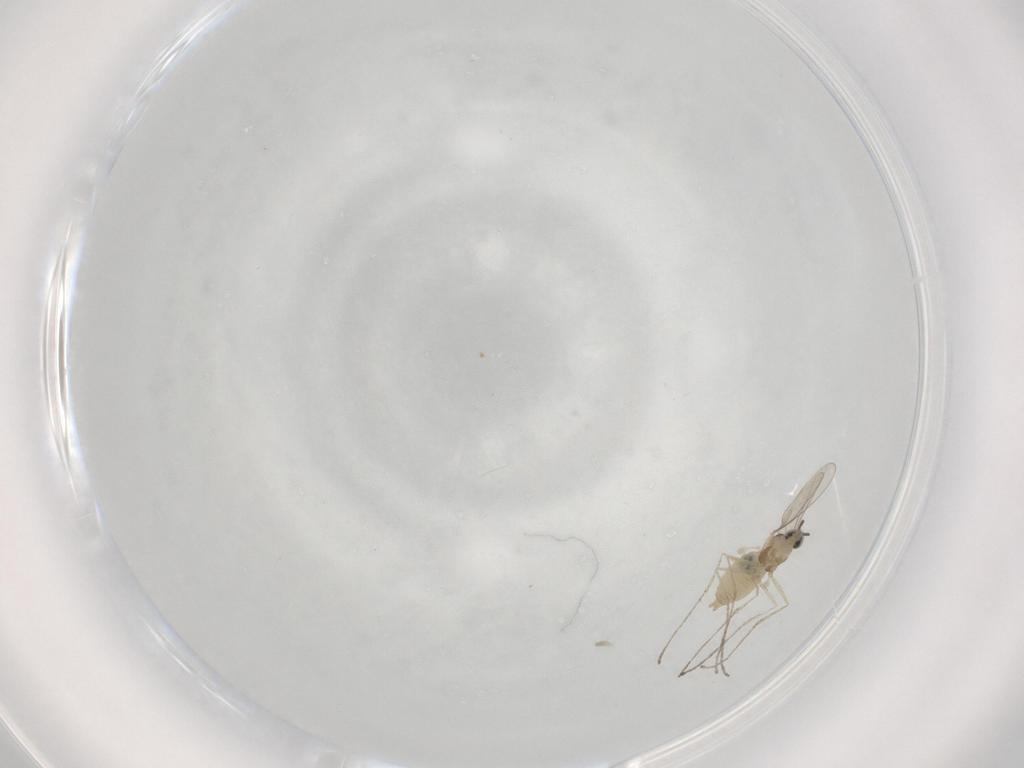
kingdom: Animalia
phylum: Arthropoda
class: Insecta
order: Diptera
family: Cecidomyiidae
